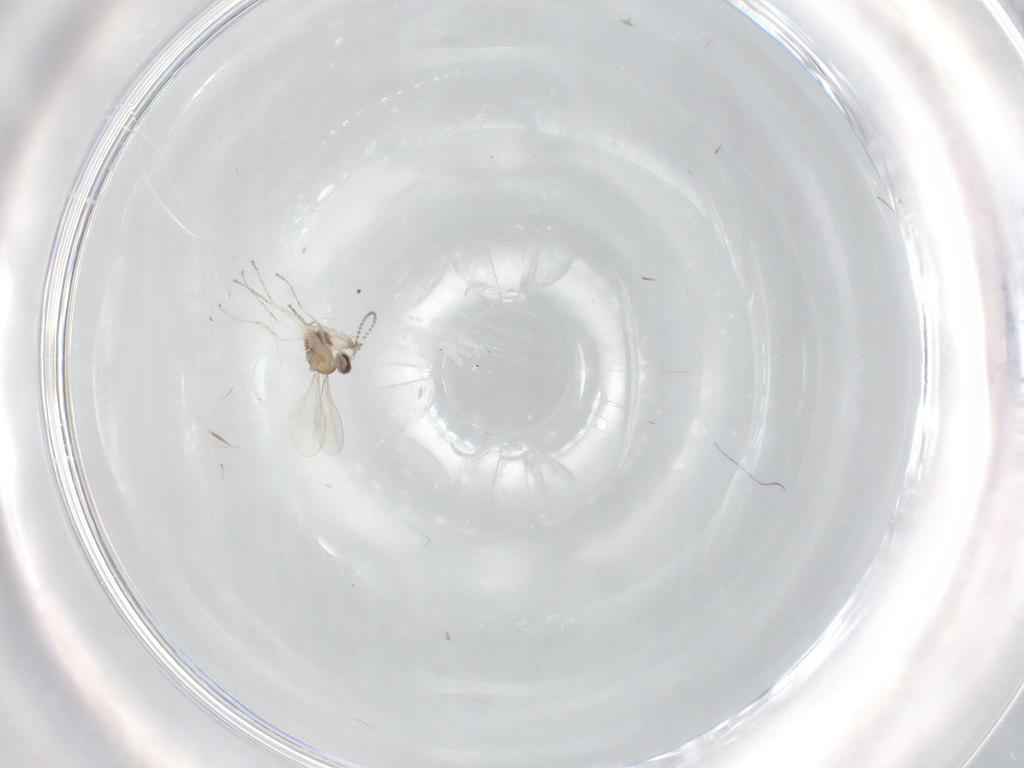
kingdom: Animalia
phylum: Arthropoda
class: Insecta
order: Diptera
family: Cecidomyiidae
